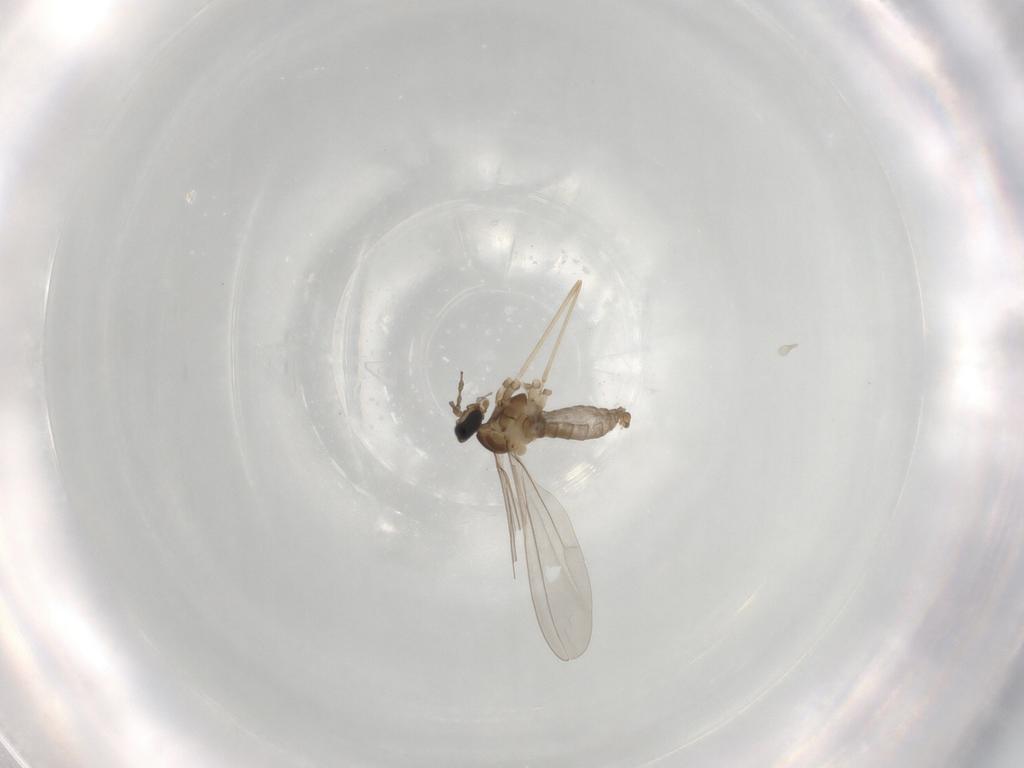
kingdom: Animalia
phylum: Arthropoda
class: Insecta
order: Diptera
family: Cecidomyiidae
